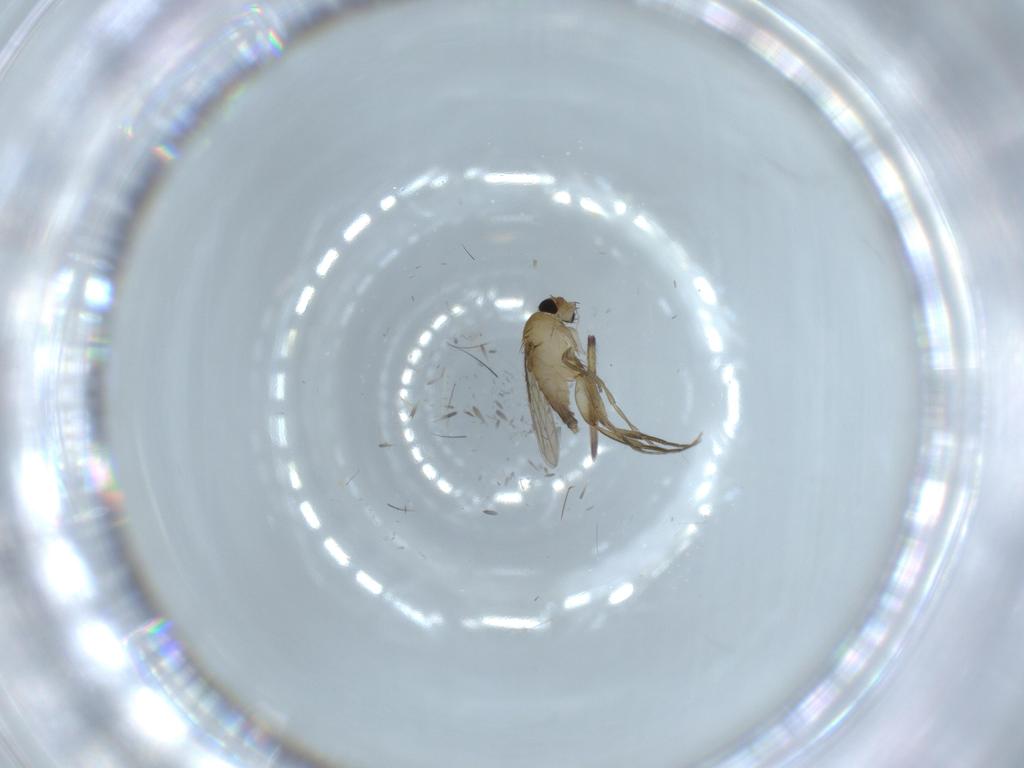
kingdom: Animalia
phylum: Arthropoda
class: Insecta
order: Diptera
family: Phoridae
